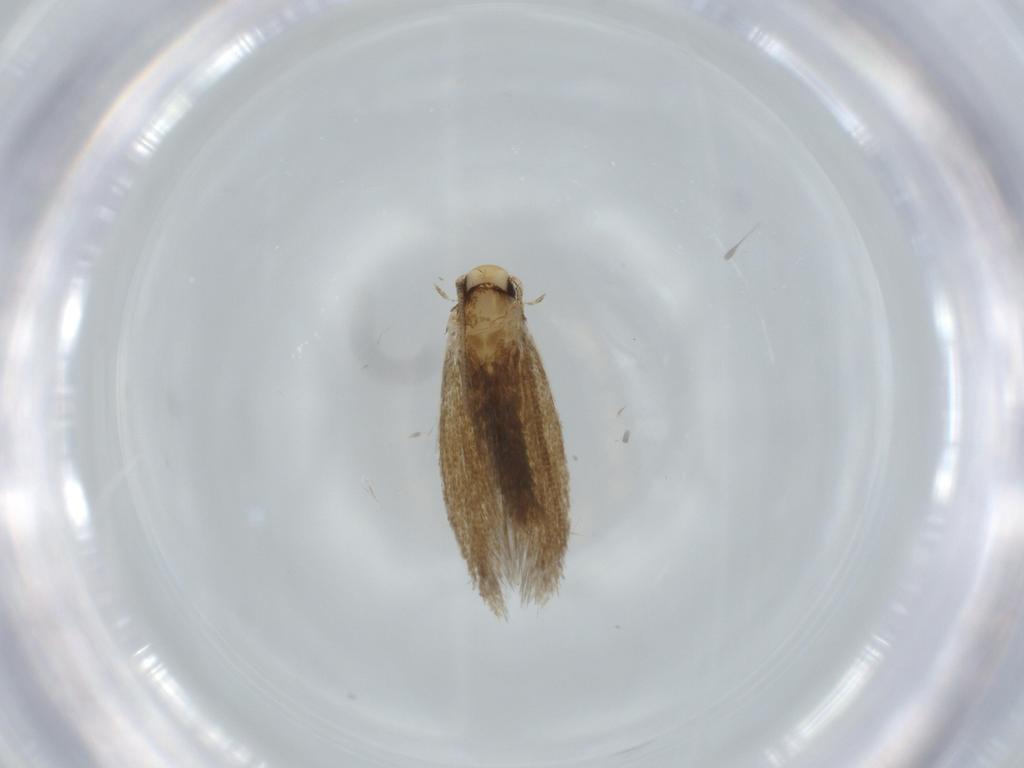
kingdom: Animalia
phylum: Arthropoda
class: Insecta
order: Lepidoptera
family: Tineidae
